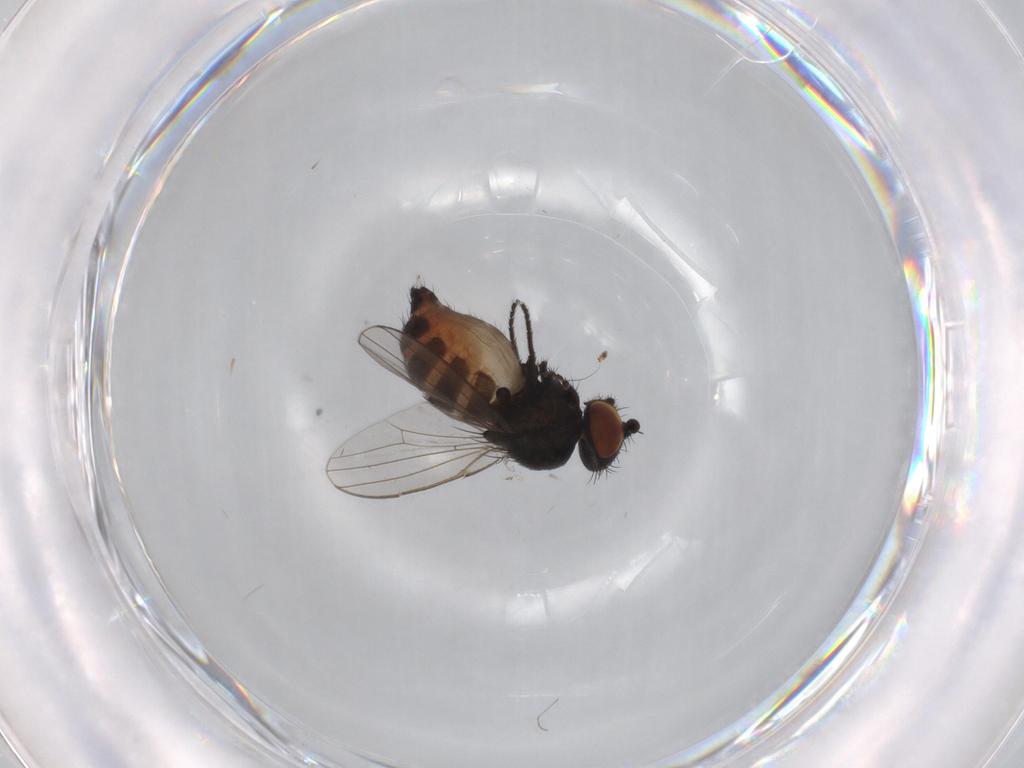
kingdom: Animalia
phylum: Arthropoda
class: Insecta
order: Diptera
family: Milichiidae
